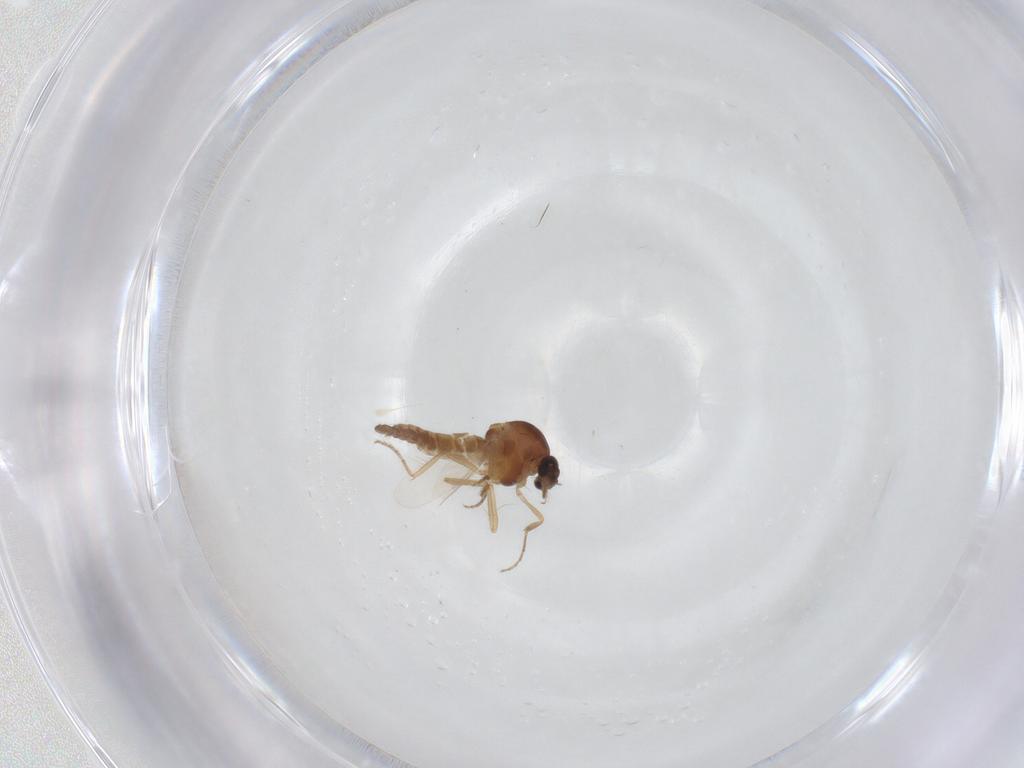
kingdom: Animalia
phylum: Arthropoda
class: Insecta
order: Diptera
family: Ceratopogonidae
